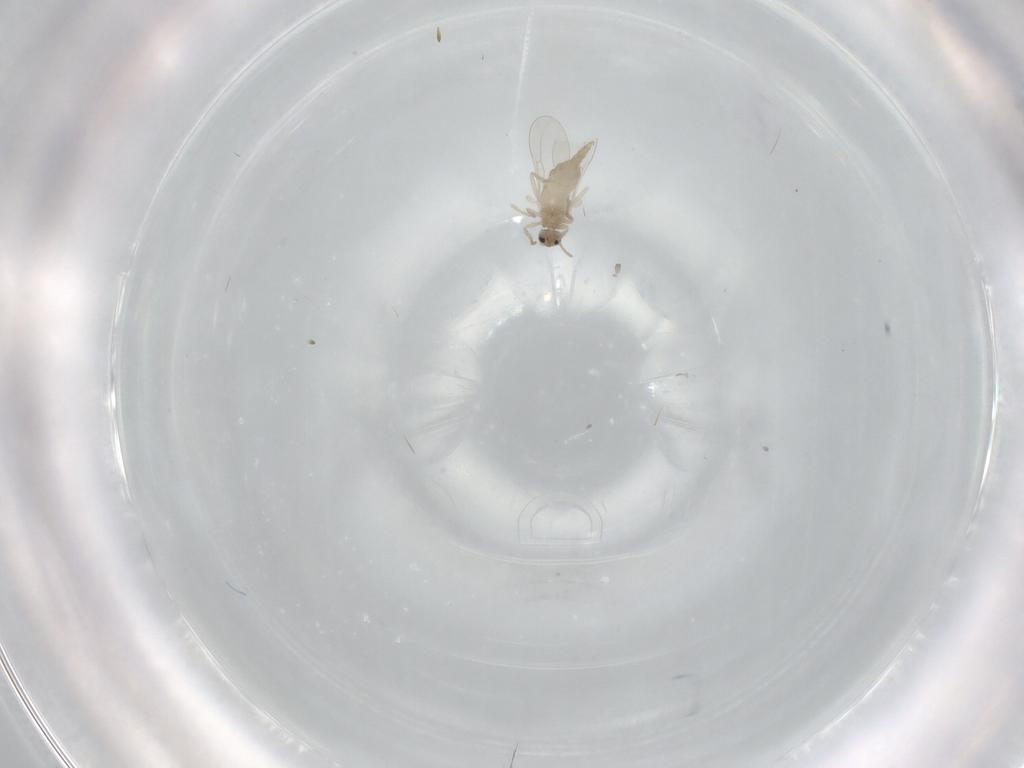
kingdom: Animalia
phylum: Arthropoda
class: Insecta
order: Diptera
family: Cecidomyiidae
